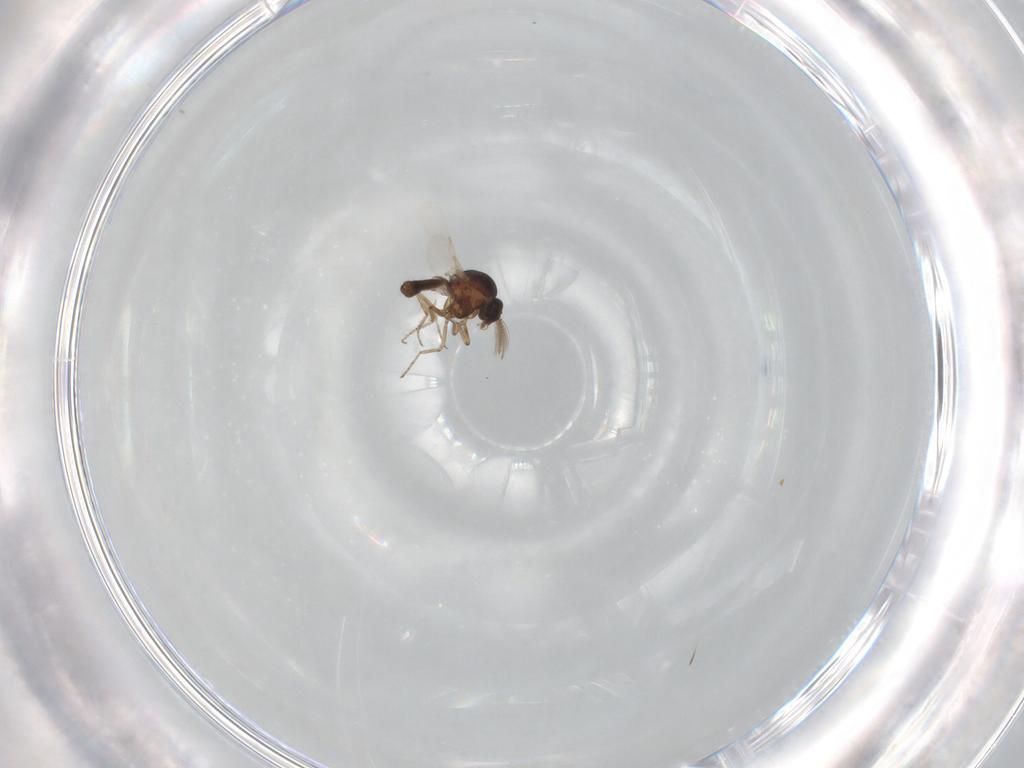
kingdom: Animalia
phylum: Arthropoda
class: Insecta
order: Diptera
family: Ceratopogonidae
